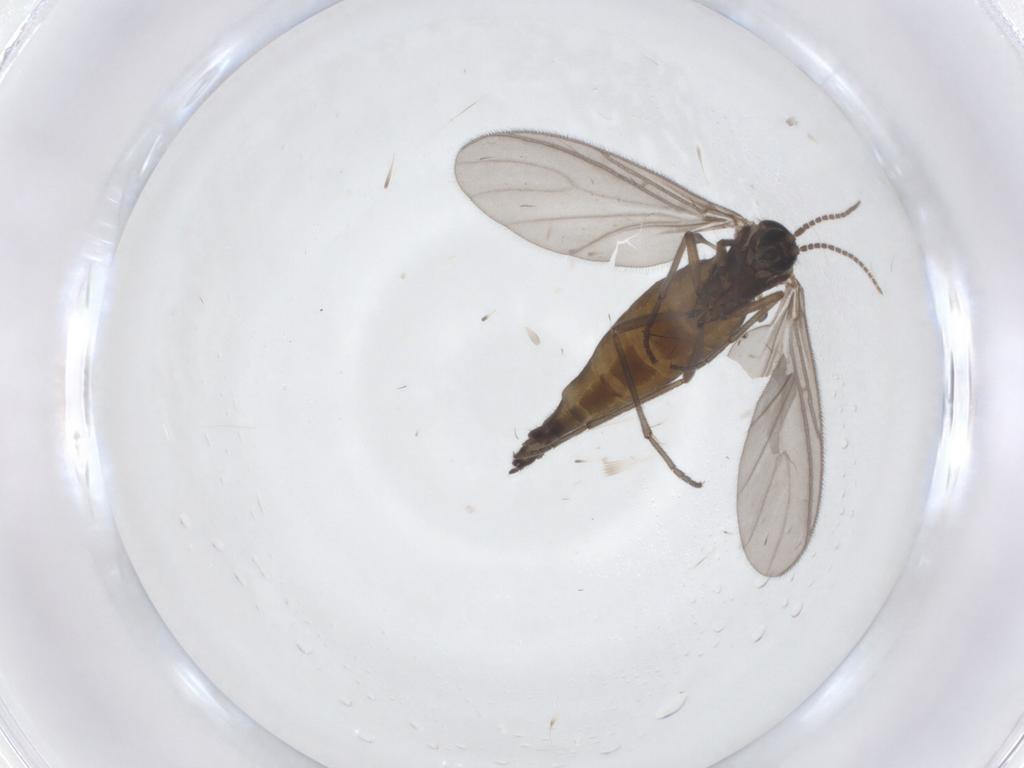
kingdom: Animalia
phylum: Arthropoda
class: Insecta
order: Diptera
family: Sciaridae
